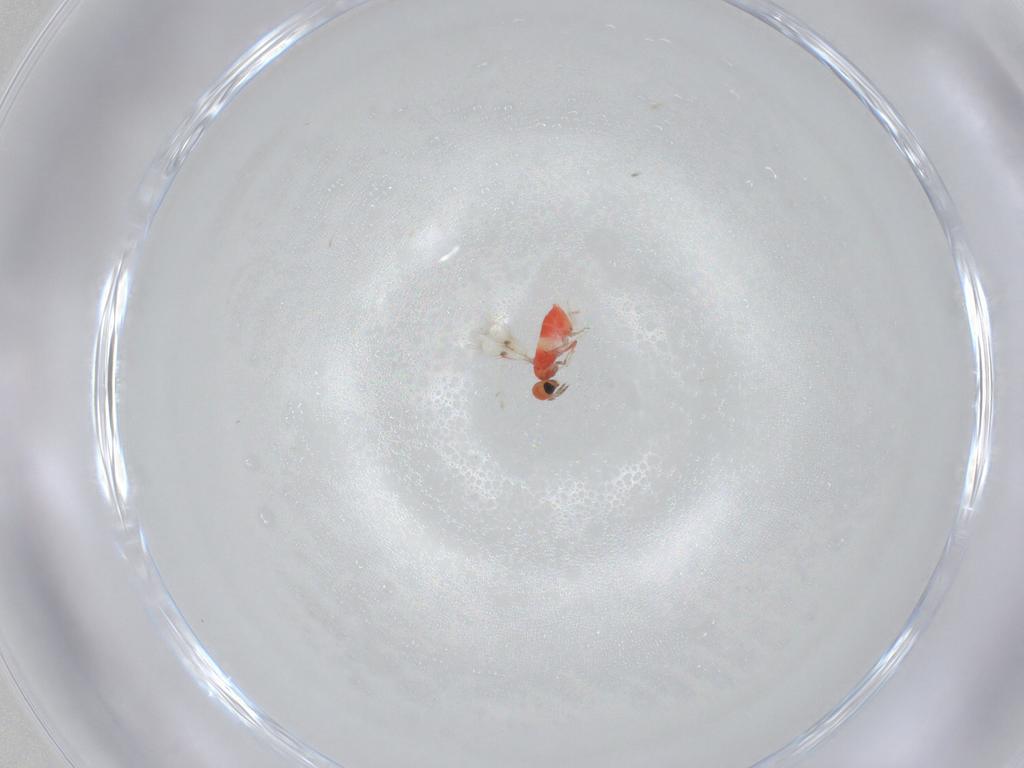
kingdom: Animalia
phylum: Arthropoda
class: Insecta
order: Hymenoptera
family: Trichogrammatidae
